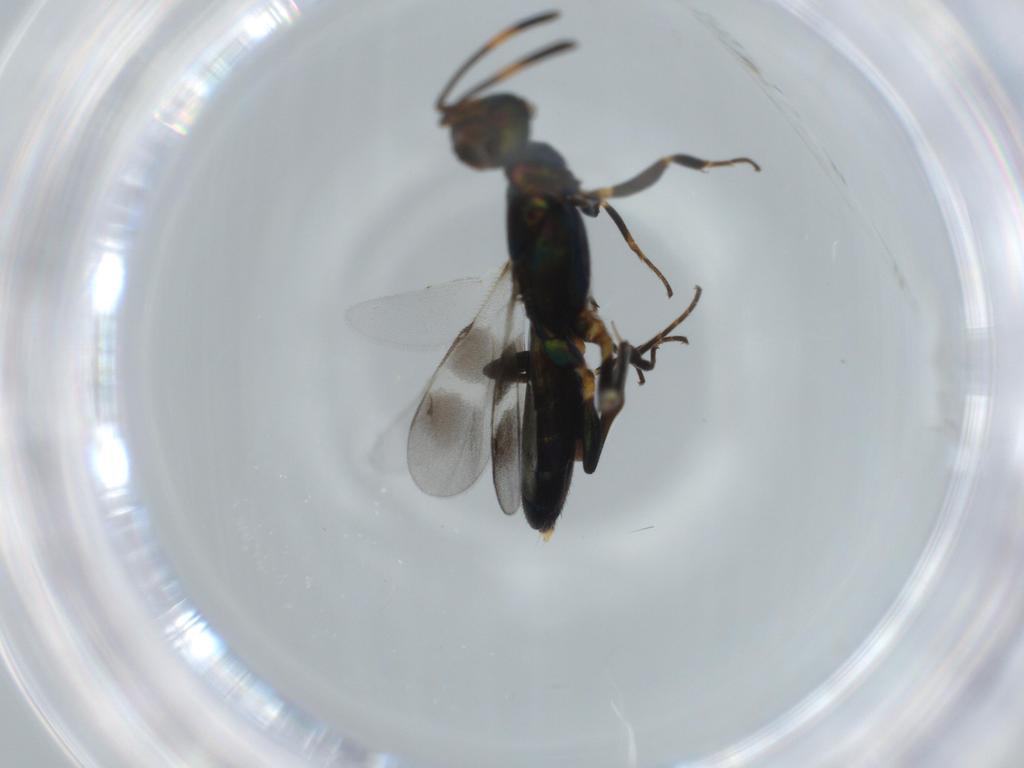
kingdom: Animalia
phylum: Arthropoda
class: Insecta
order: Hymenoptera
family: Eupelmidae
